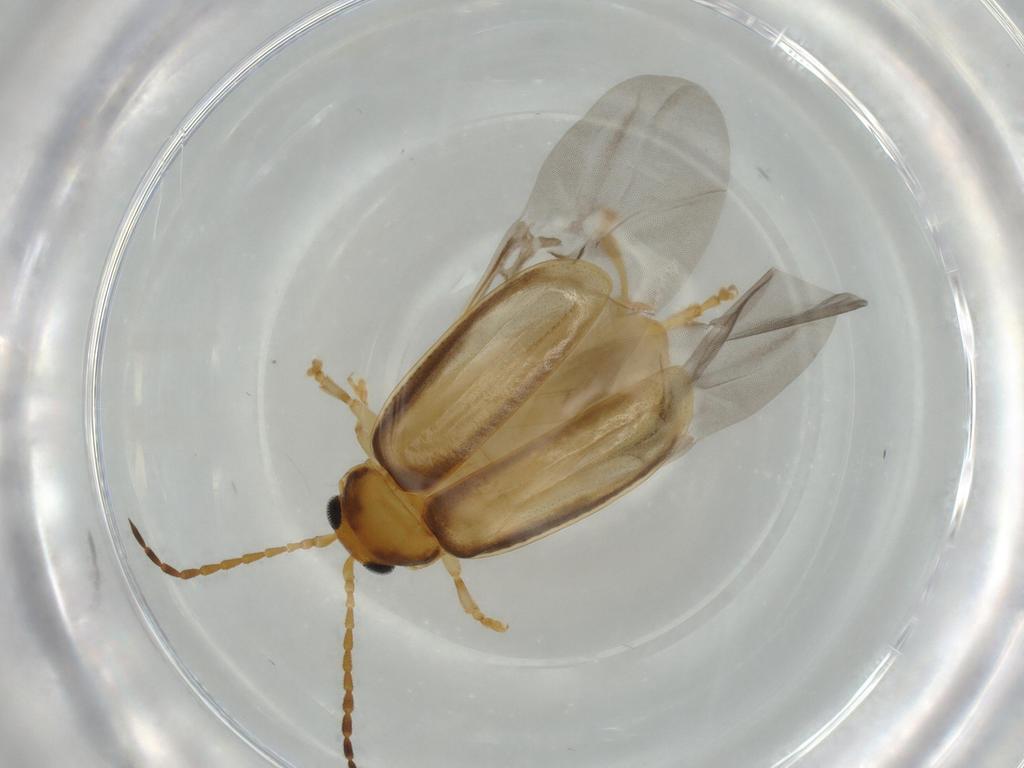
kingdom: Animalia
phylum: Arthropoda
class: Insecta
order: Coleoptera
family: Chrysomelidae
